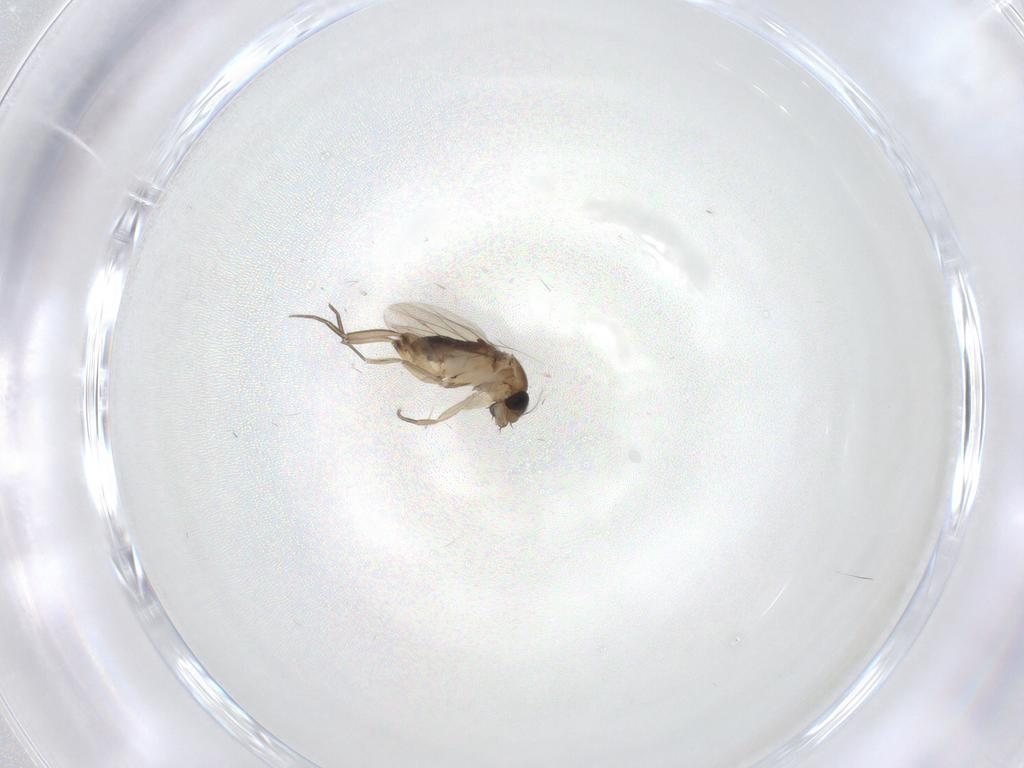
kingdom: Animalia
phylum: Arthropoda
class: Insecta
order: Diptera
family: Phoridae
